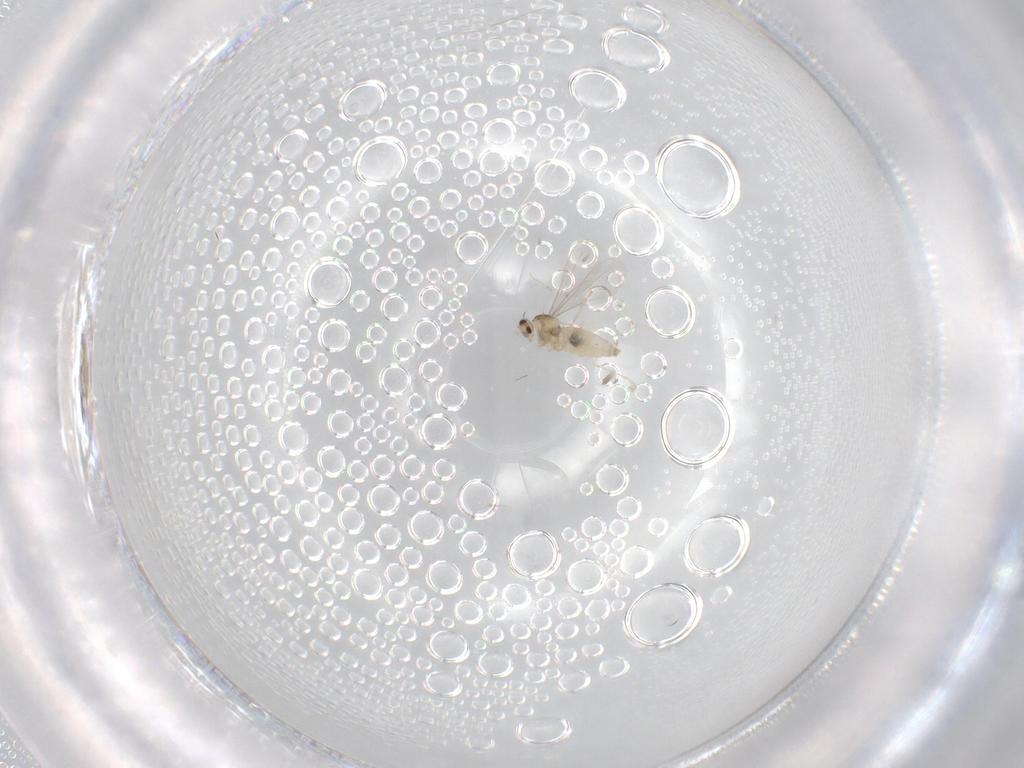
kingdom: Animalia
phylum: Arthropoda
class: Insecta
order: Diptera
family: Cecidomyiidae
